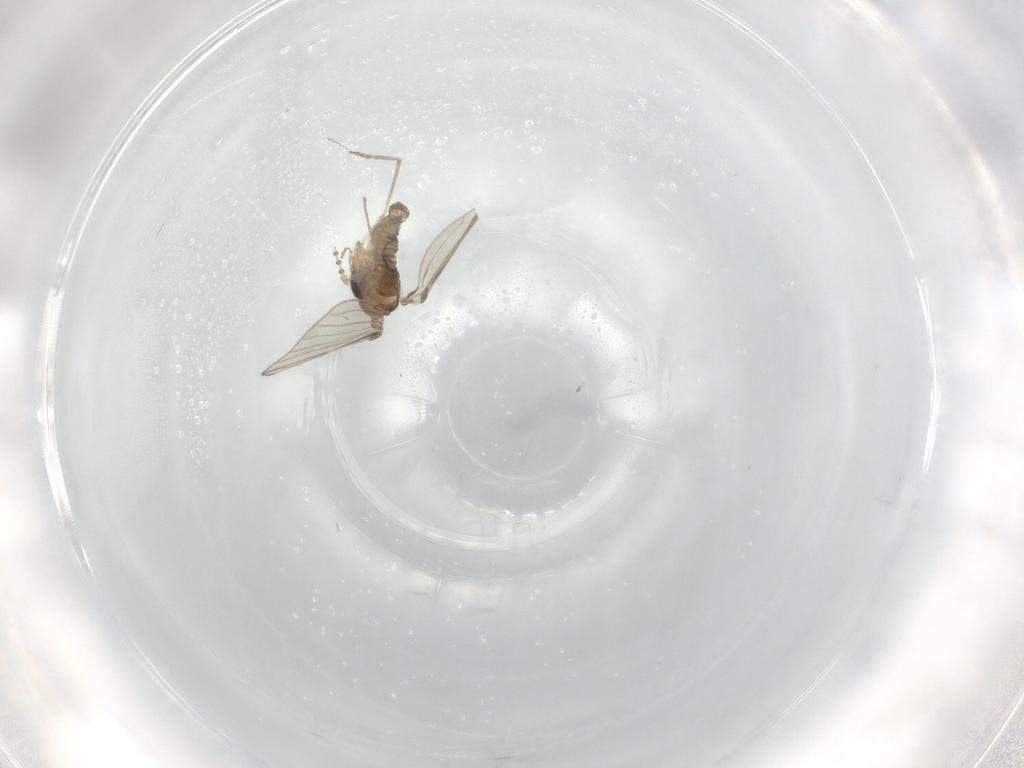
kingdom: Animalia
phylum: Arthropoda
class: Insecta
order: Diptera
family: Psychodidae
